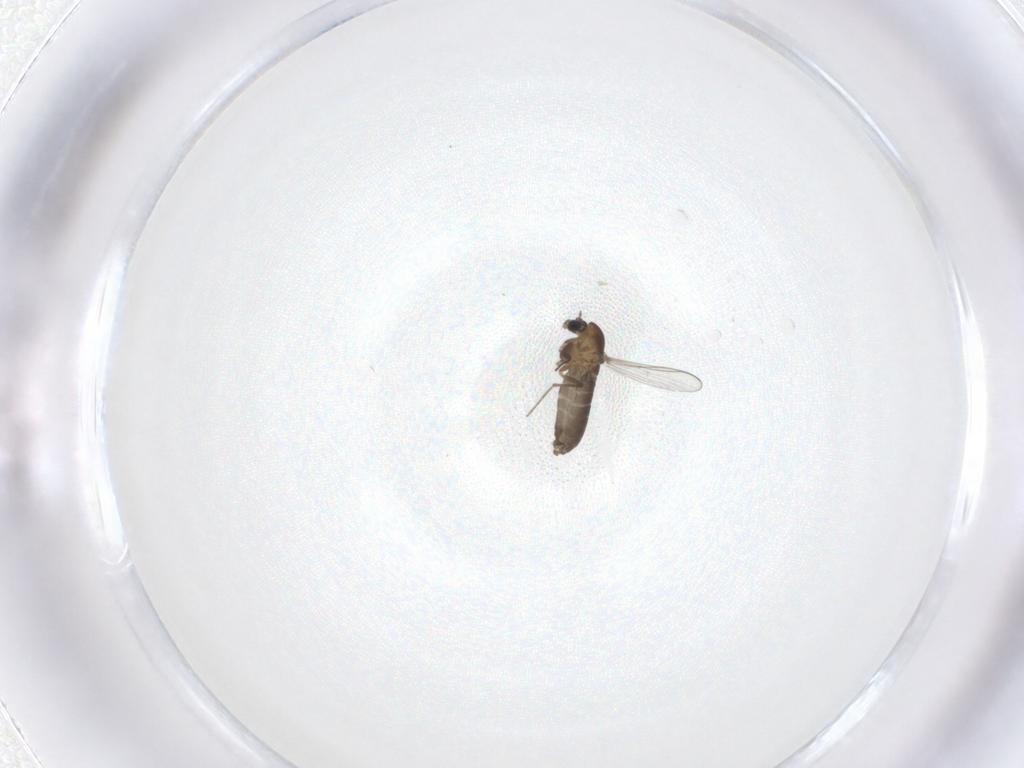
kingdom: Animalia
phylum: Arthropoda
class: Insecta
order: Diptera
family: Chironomidae
